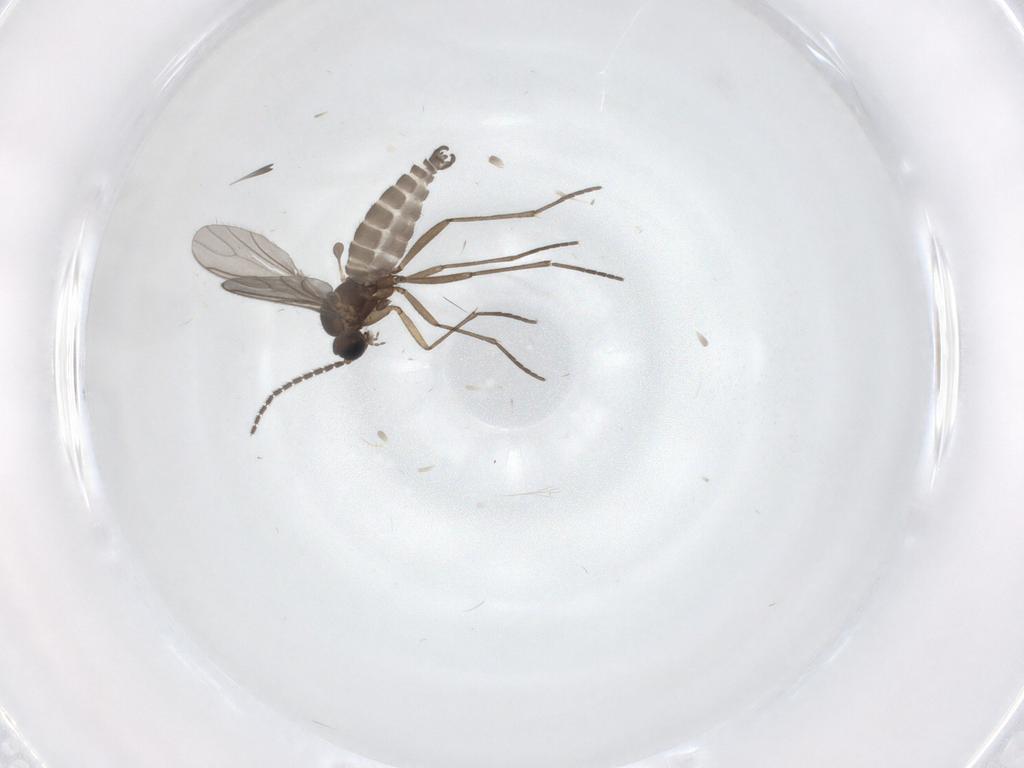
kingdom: Animalia
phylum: Arthropoda
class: Insecta
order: Diptera
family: Sciaridae
